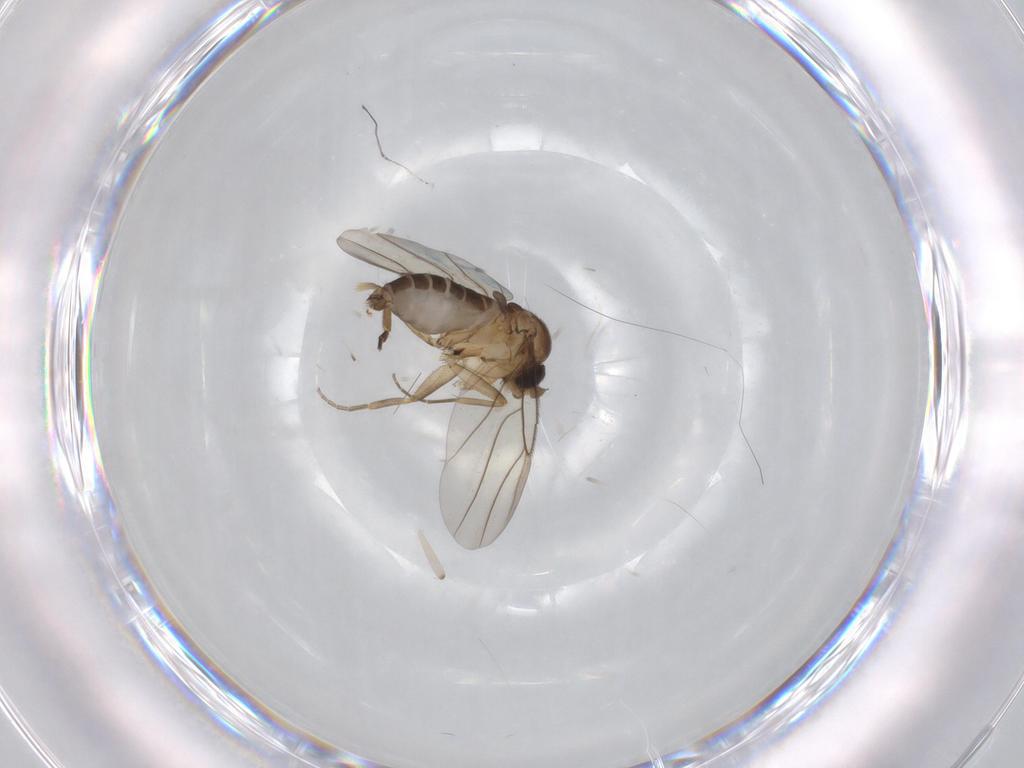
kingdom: Animalia
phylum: Arthropoda
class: Insecta
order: Diptera
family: Phoridae
